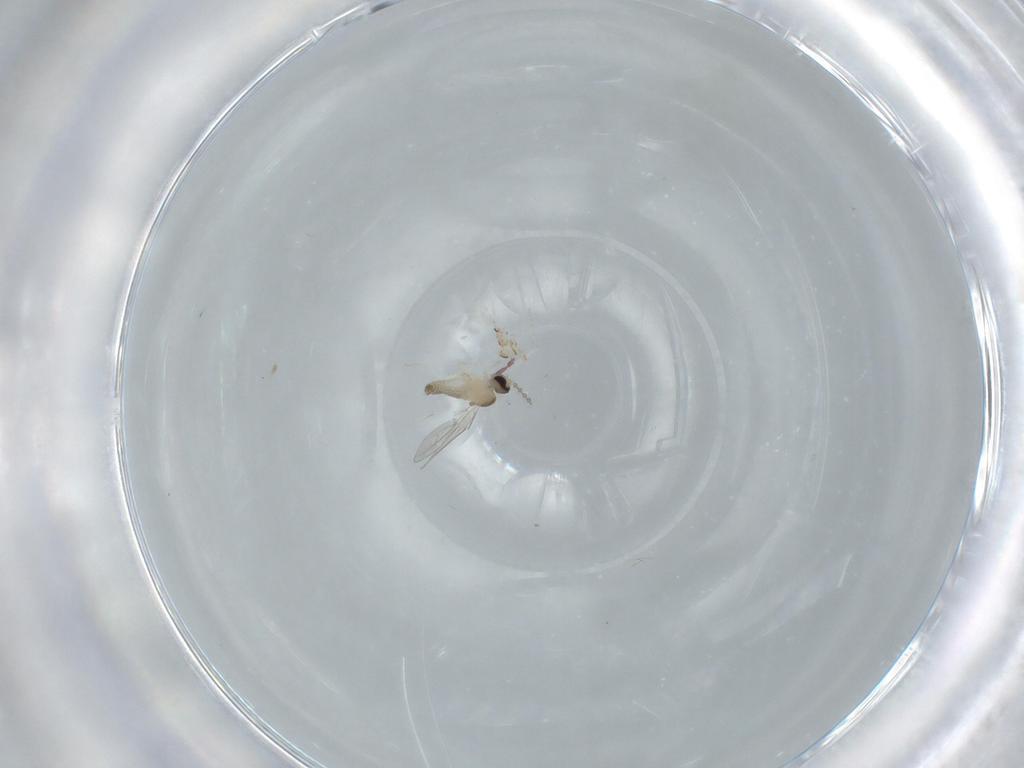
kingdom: Animalia
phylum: Arthropoda
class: Insecta
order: Diptera
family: Cecidomyiidae
